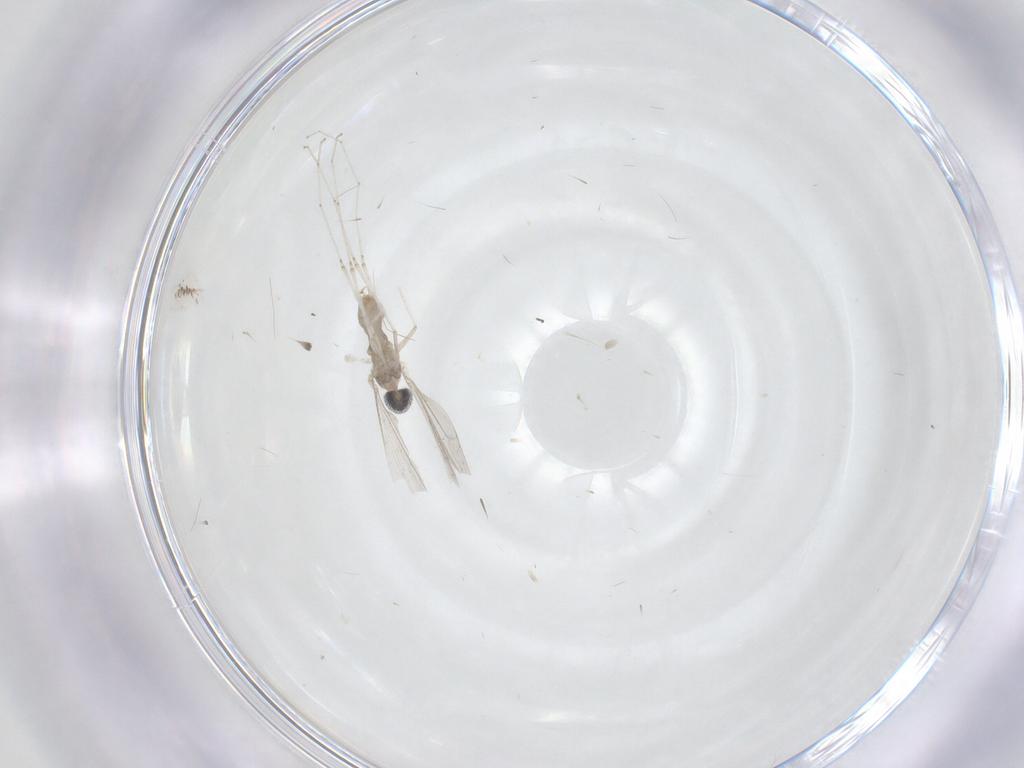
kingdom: Animalia
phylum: Arthropoda
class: Insecta
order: Diptera
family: Cecidomyiidae
